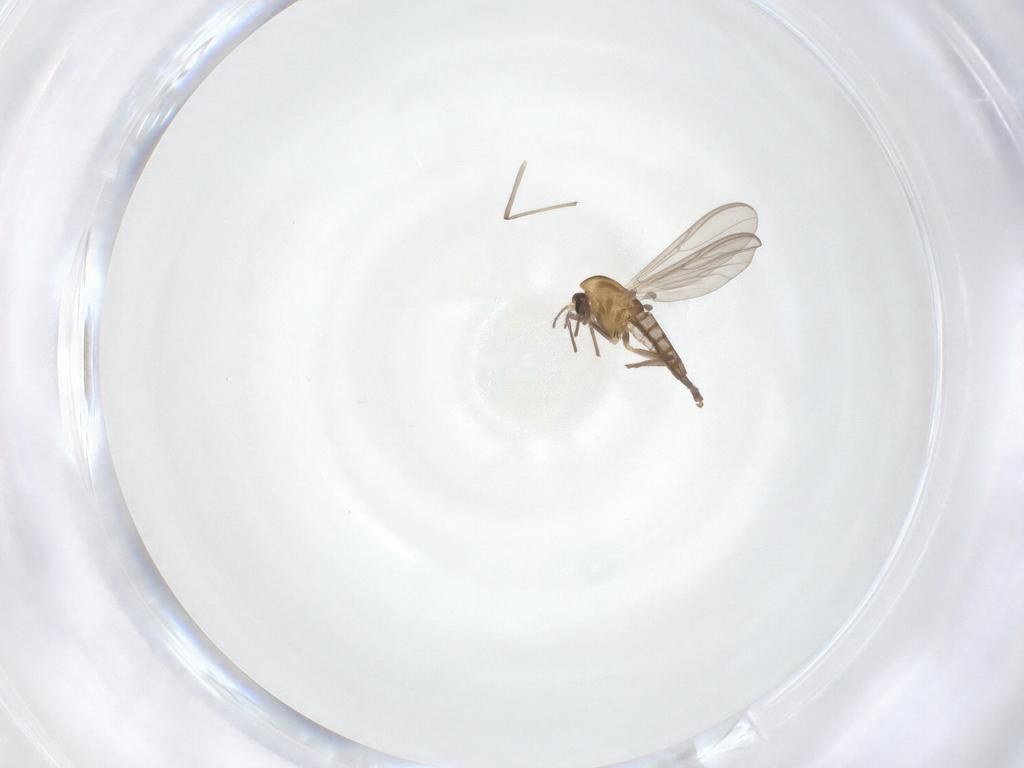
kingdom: Animalia
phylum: Arthropoda
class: Insecta
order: Diptera
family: Chironomidae
